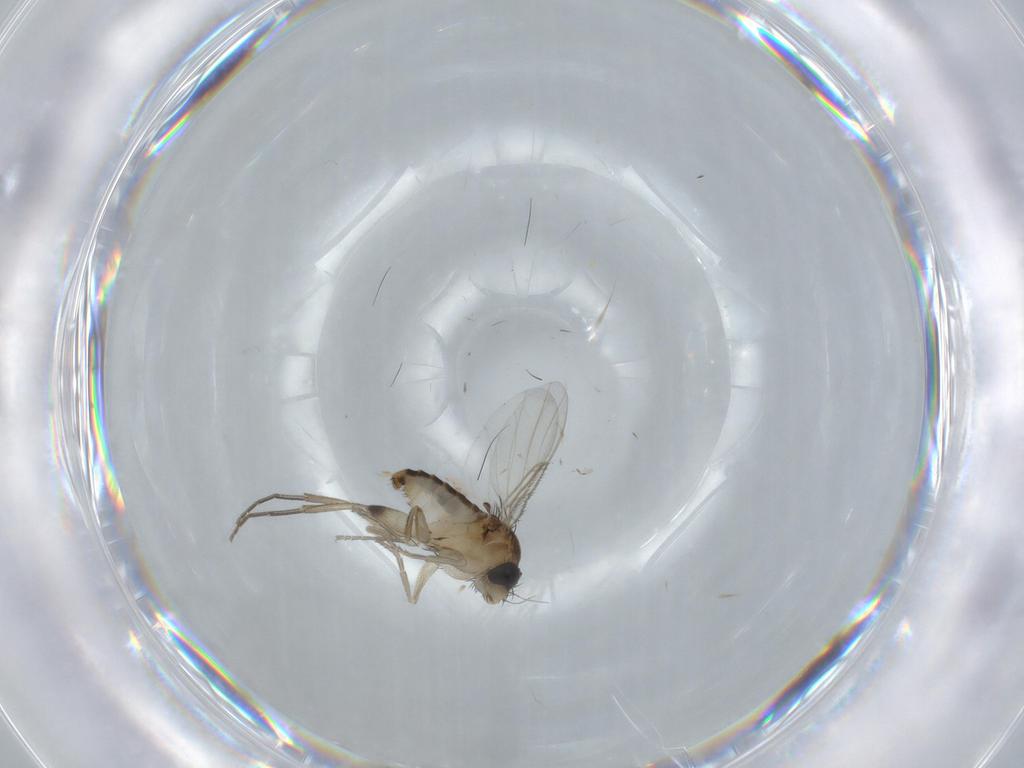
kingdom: Animalia
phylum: Arthropoda
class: Insecta
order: Diptera
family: Phoridae
